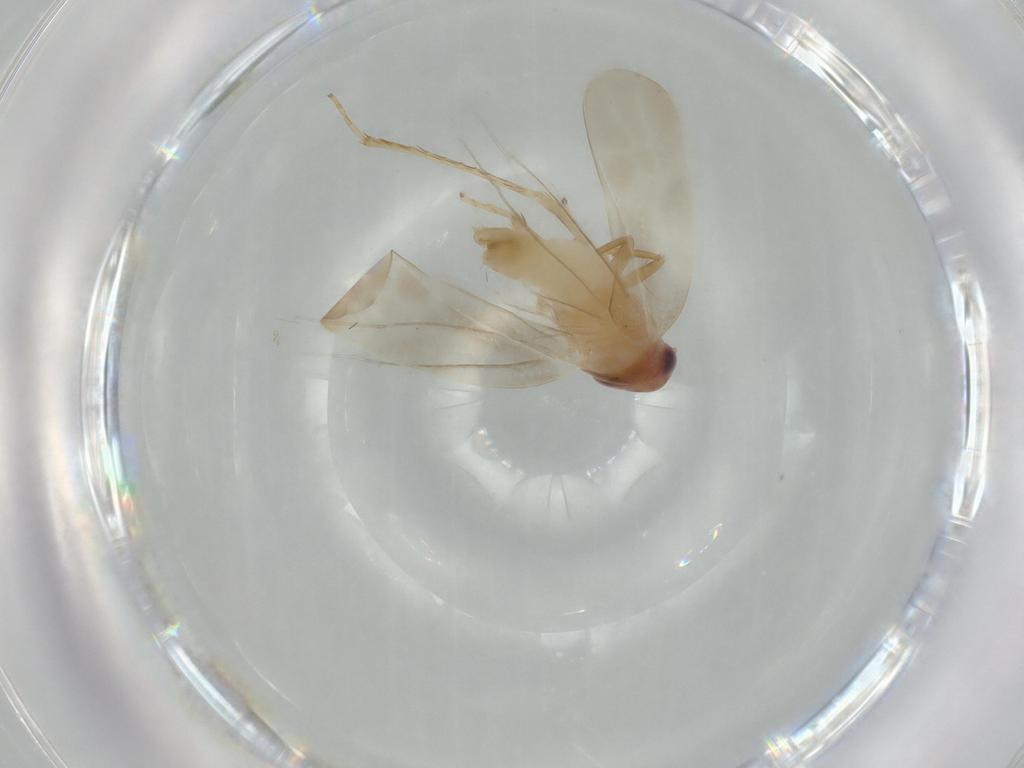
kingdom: Animalia
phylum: Arthropoda
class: Insecta
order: Hemiptera
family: Cicadellidae
